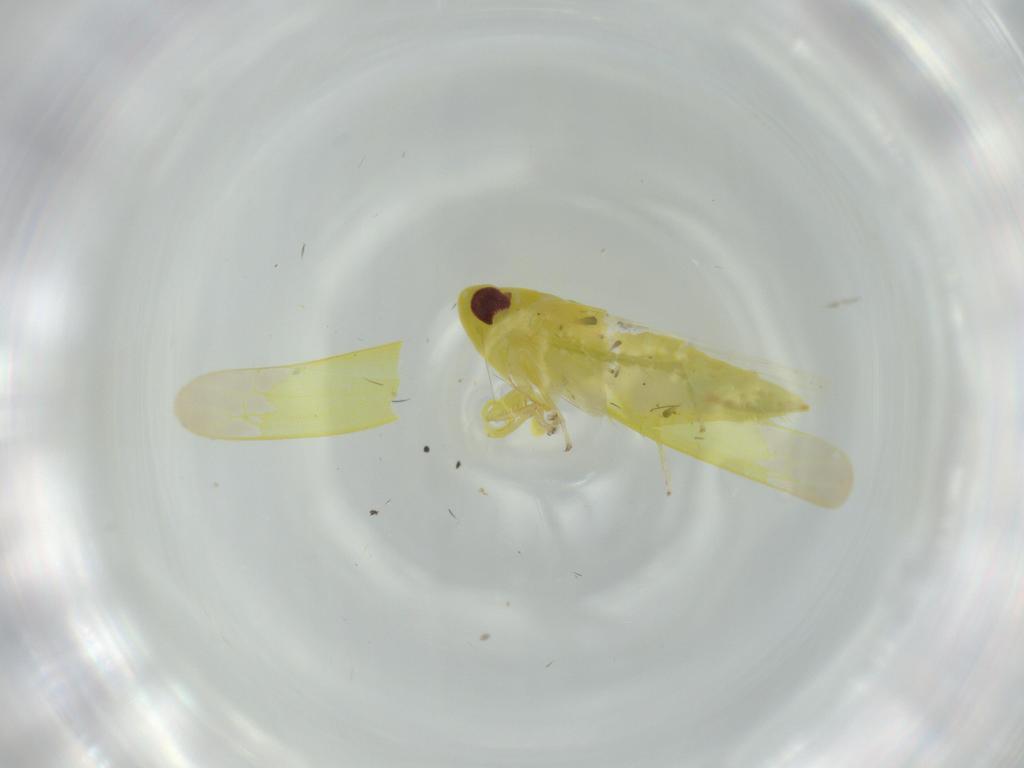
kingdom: Animalia
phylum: Arthropoda
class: Insecta
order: Hemiptera
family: Cicadellidae
